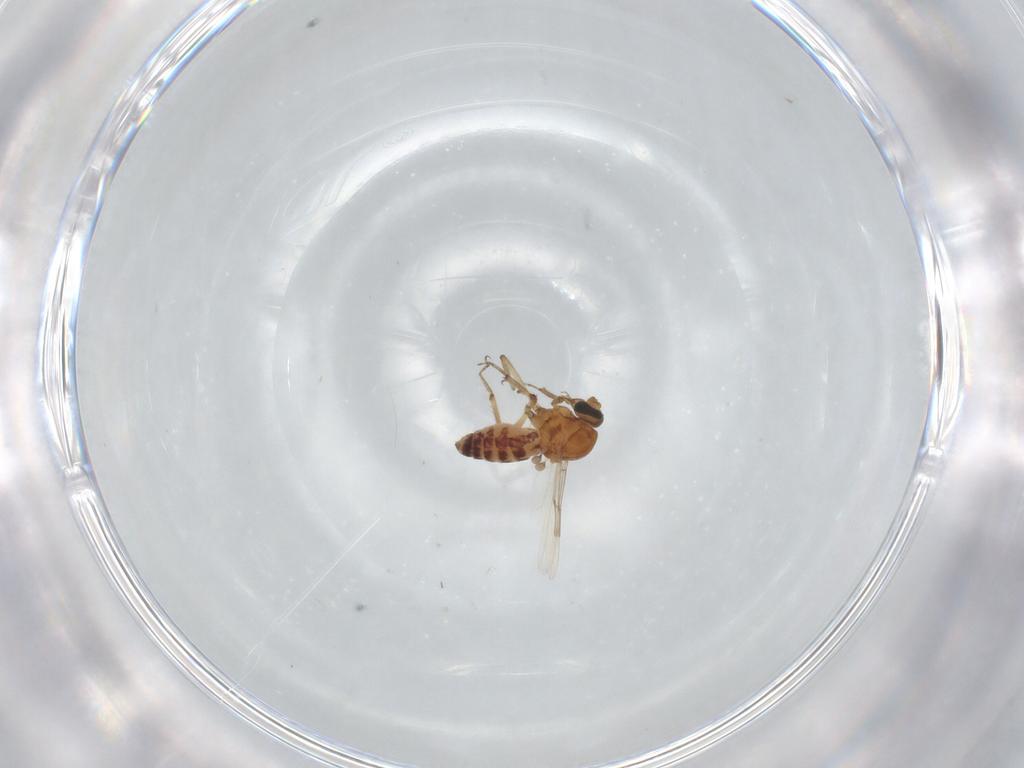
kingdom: Animalia
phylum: Arthropoda
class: Insecta
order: Diptera
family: Ceratopogonidae
